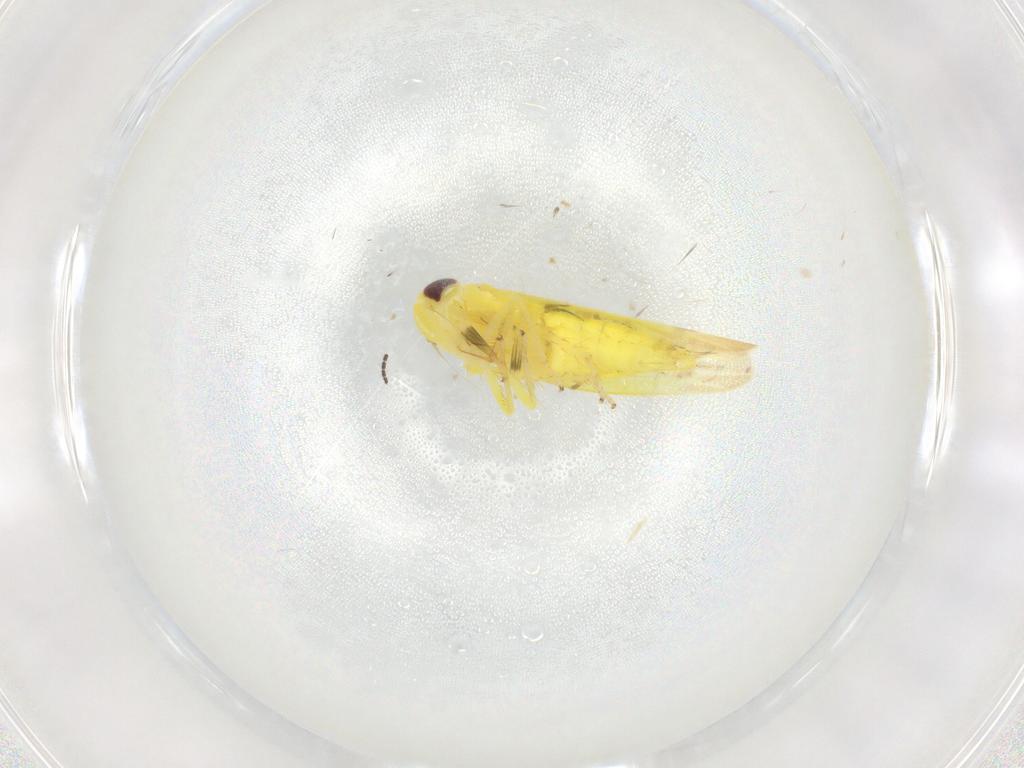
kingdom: Animalia
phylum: Arthropoda
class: Insecta
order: Hemiptera
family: Cicadellidae
